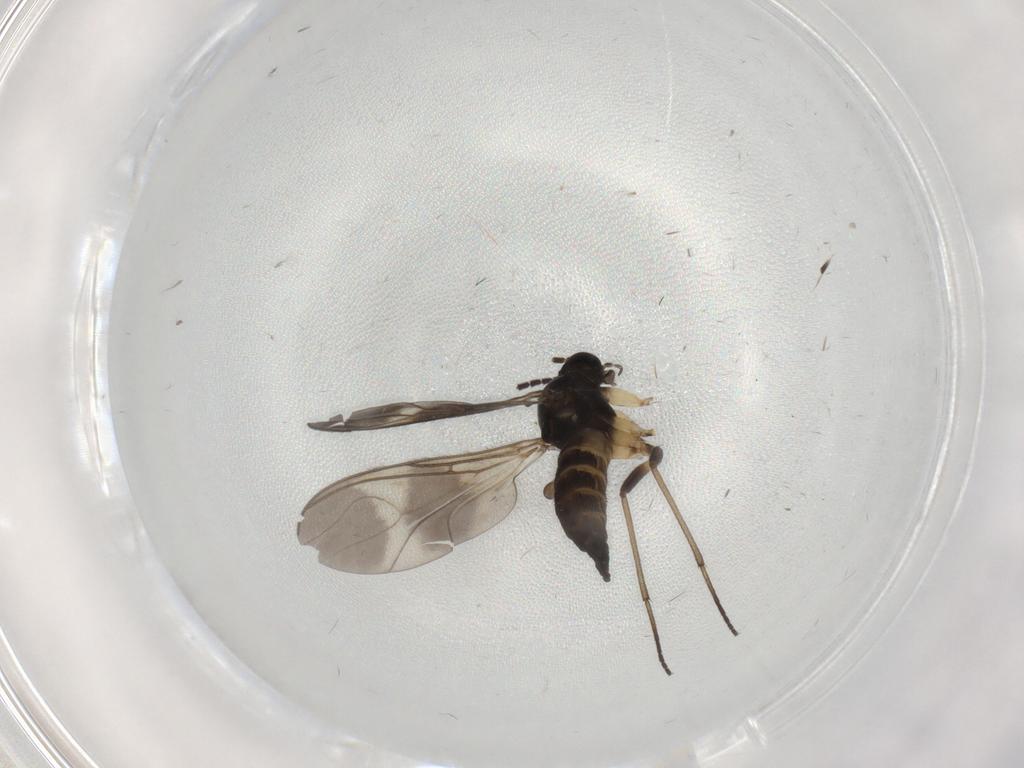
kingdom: Animalia
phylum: Arthropoda
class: Insecta
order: Diptera
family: Sciaridae
